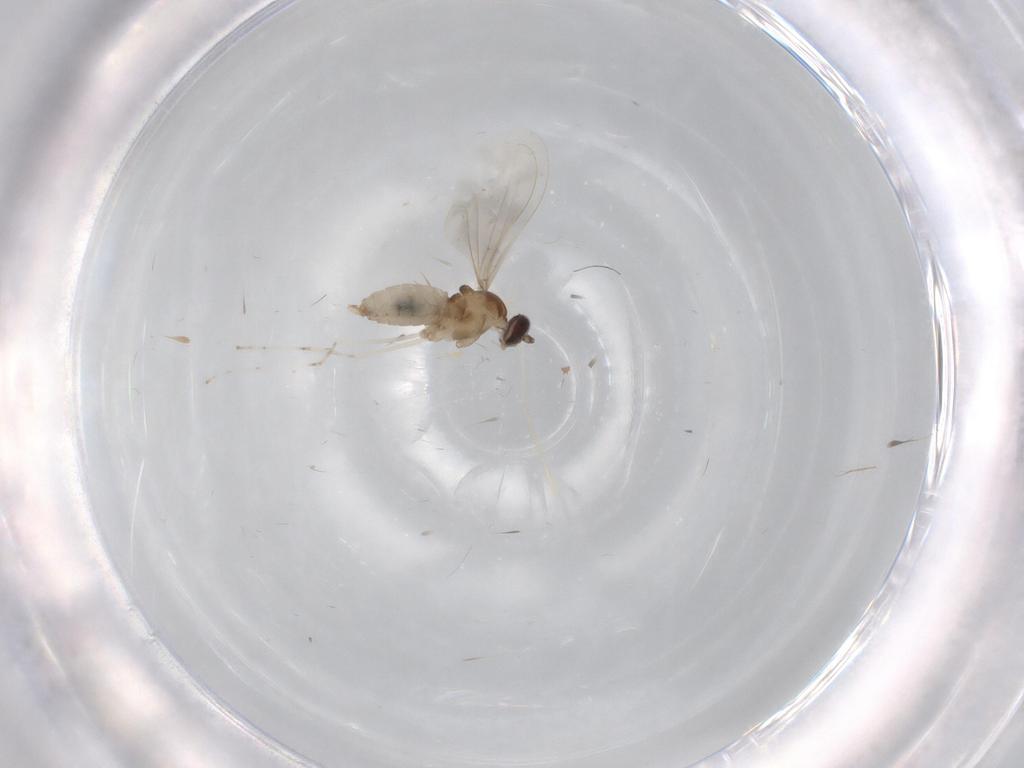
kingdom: Animalia
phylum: Arthropoda
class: Insecta
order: Diptera
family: Cecidomyiidae
